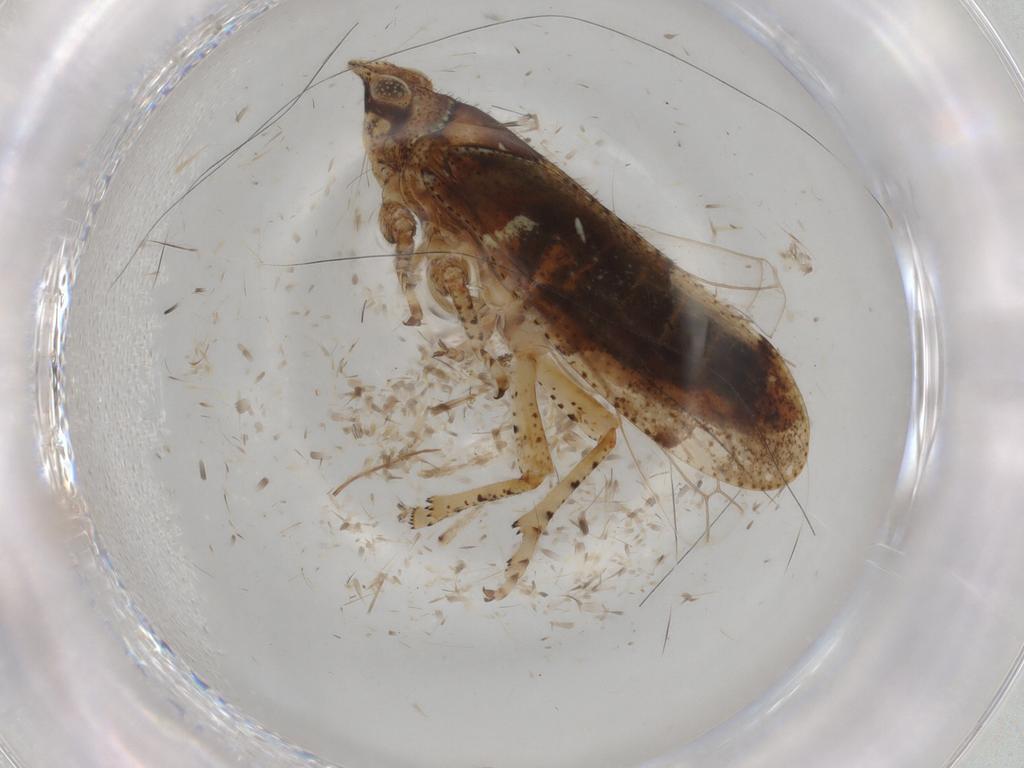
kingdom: Animalia
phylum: Arthropoda
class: Insecta
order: Hemiptera
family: Tettigometridae
